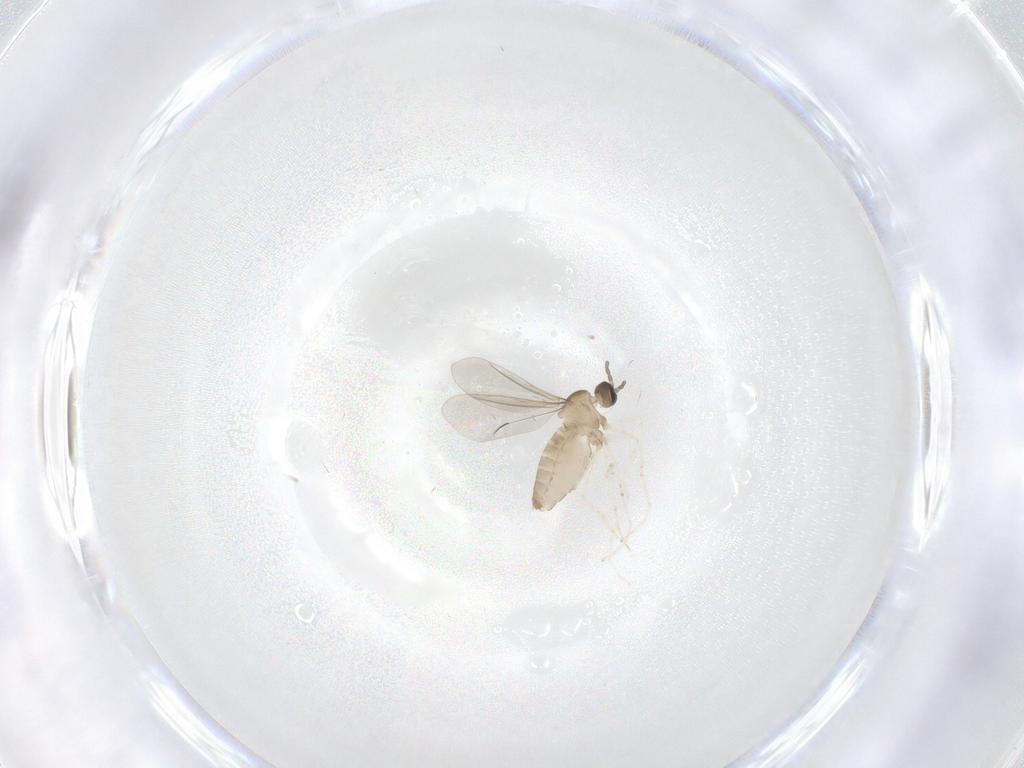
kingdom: Animalia
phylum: Arthropoda
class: Insecta
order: Diptera
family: Cecidomyiidae
